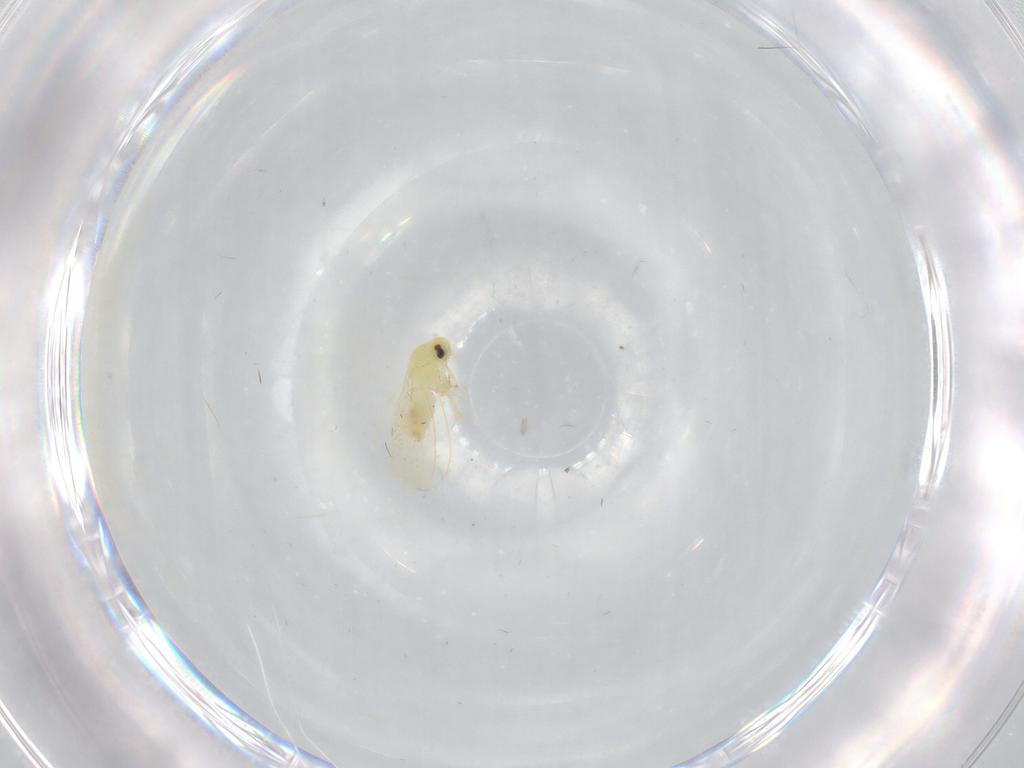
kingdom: Animalia
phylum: Arthropoda
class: Insecta
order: Hemiptera
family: Aleyrodidae
